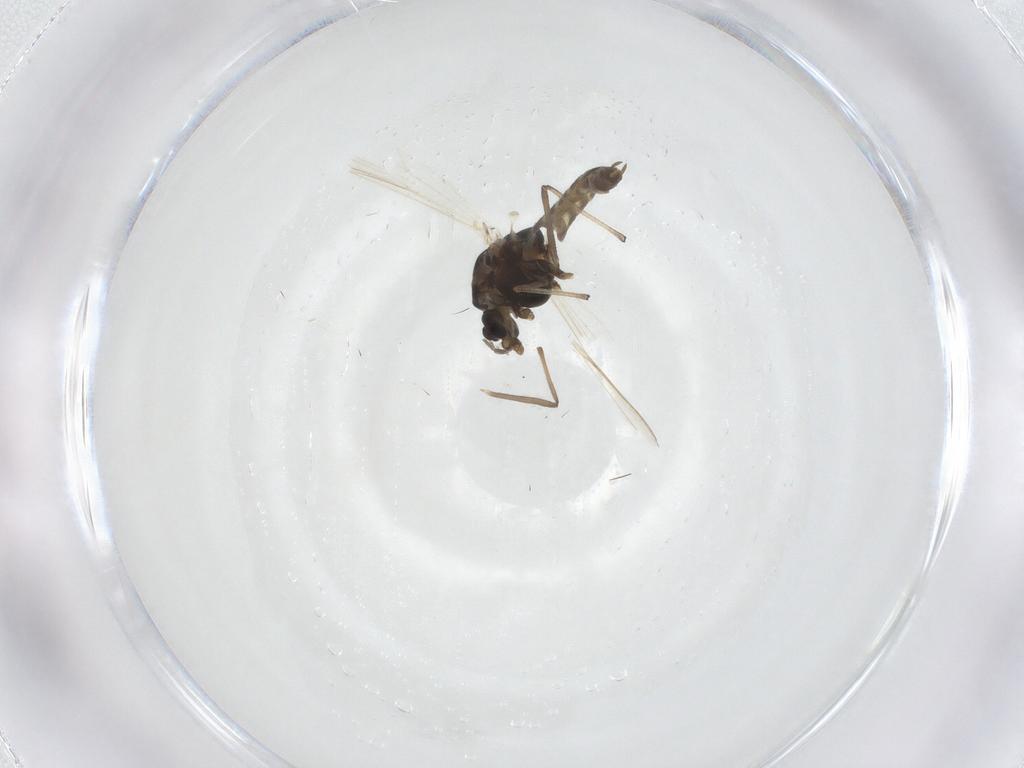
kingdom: Animalia
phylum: Arthropoda
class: Insecta
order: Diptera
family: Chironomidae
